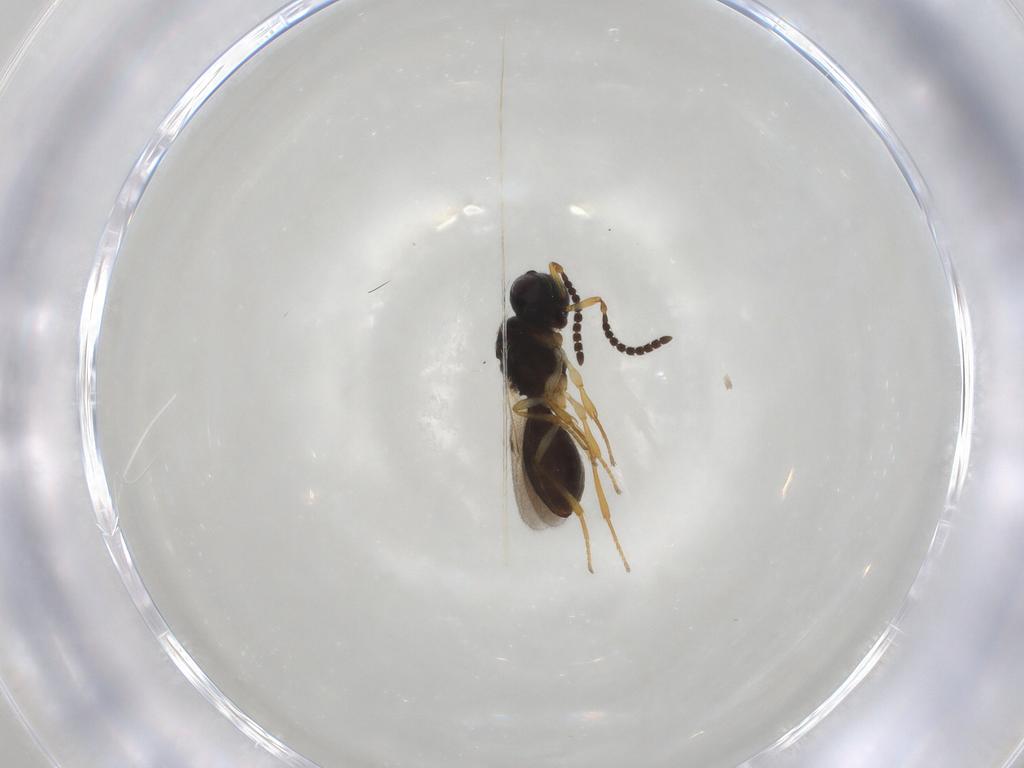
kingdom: Animalia
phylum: Arthropoda
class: Insecta
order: Hymenoptera
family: Scelionidae
